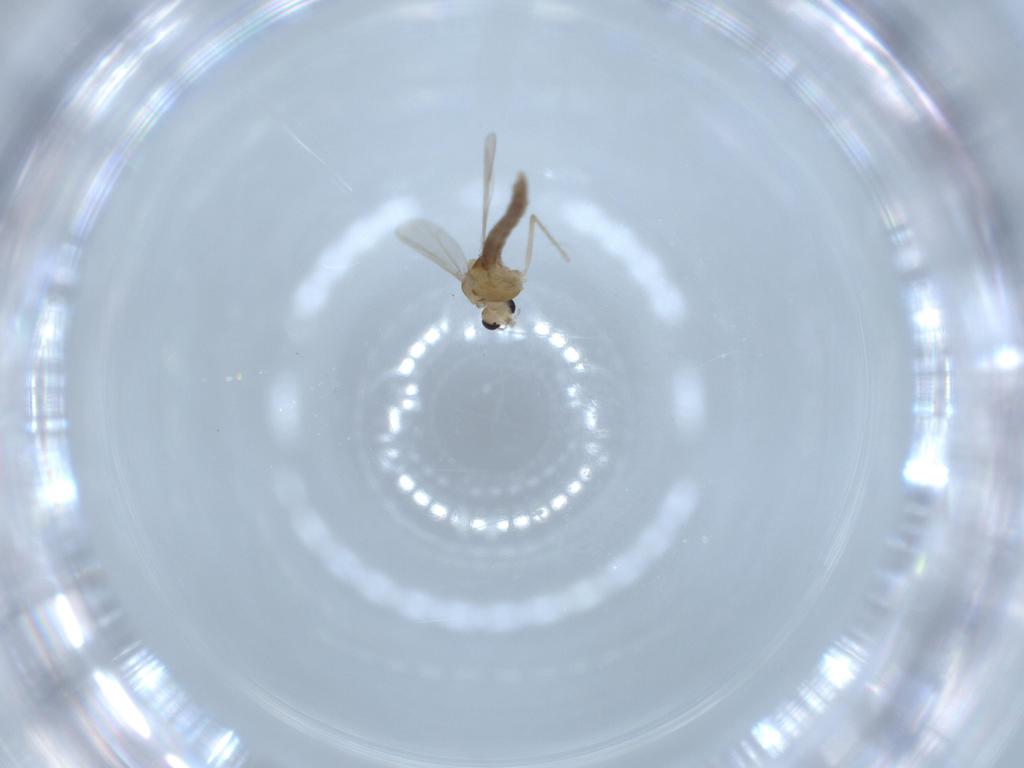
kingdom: Animalia
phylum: Arthropoda
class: Insecta
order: Diptera
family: Chironomidae
